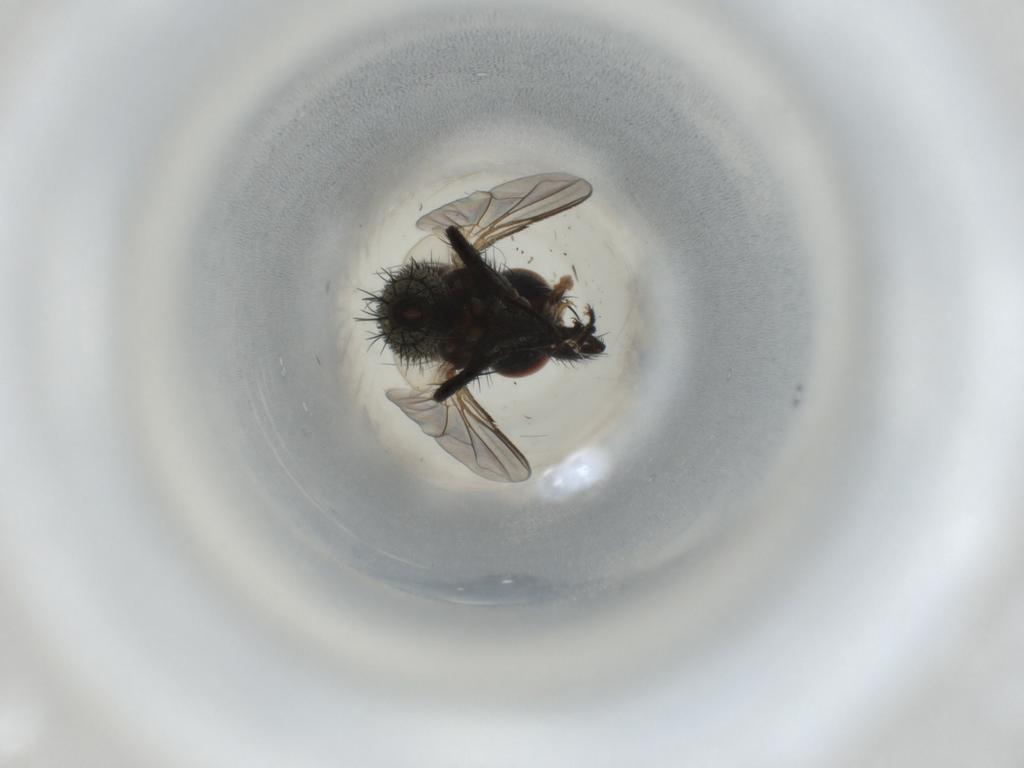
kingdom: Animalia
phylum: Arthropoda
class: Insecta
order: Diptera
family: Tachinidae
